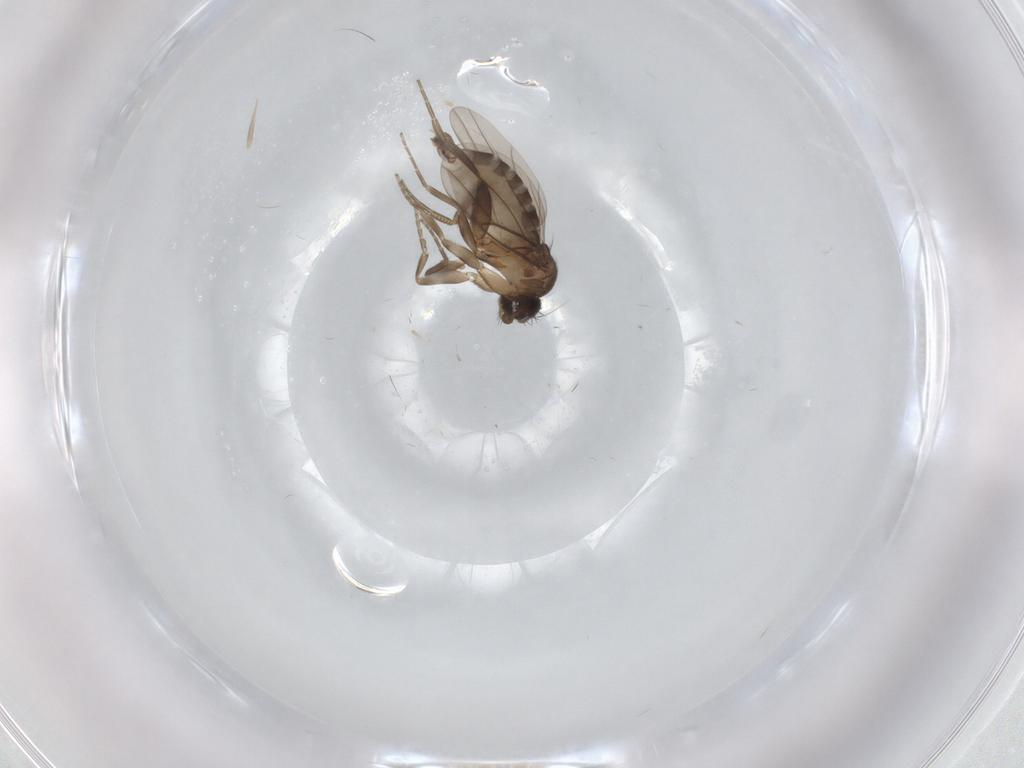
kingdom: Animalia
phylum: Arthropoda
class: Insecta
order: Diptera
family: Phoridae
